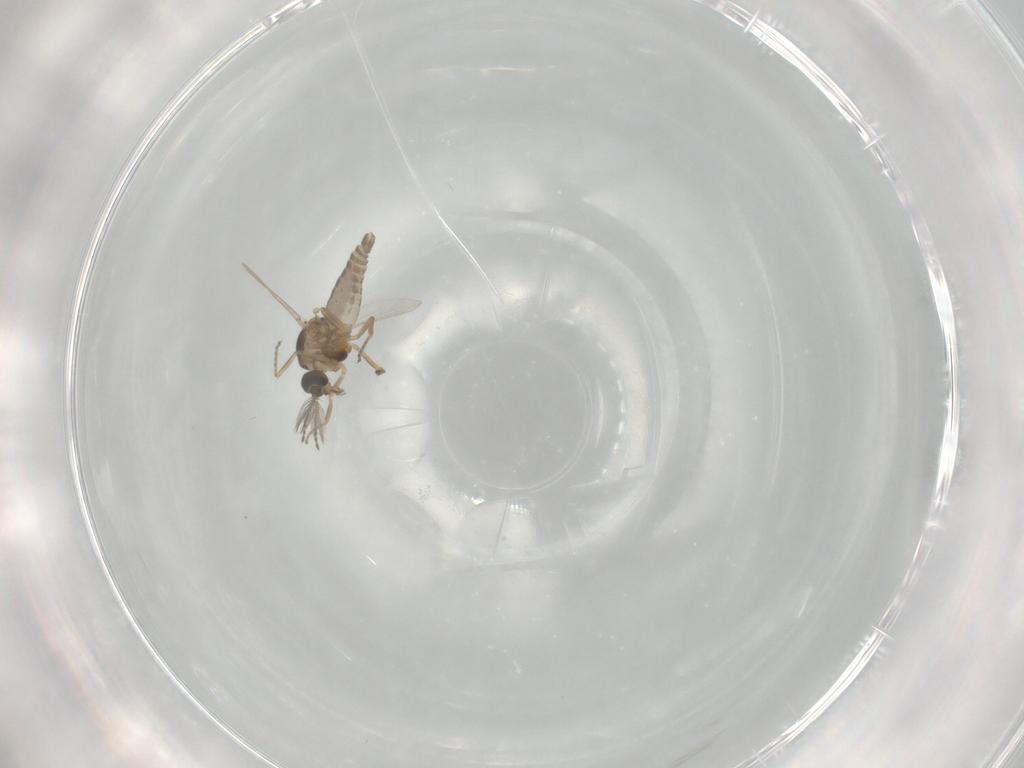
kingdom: Animalia
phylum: Arthropoda
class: Insecta
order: Diptera
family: Ceratopogonidae
